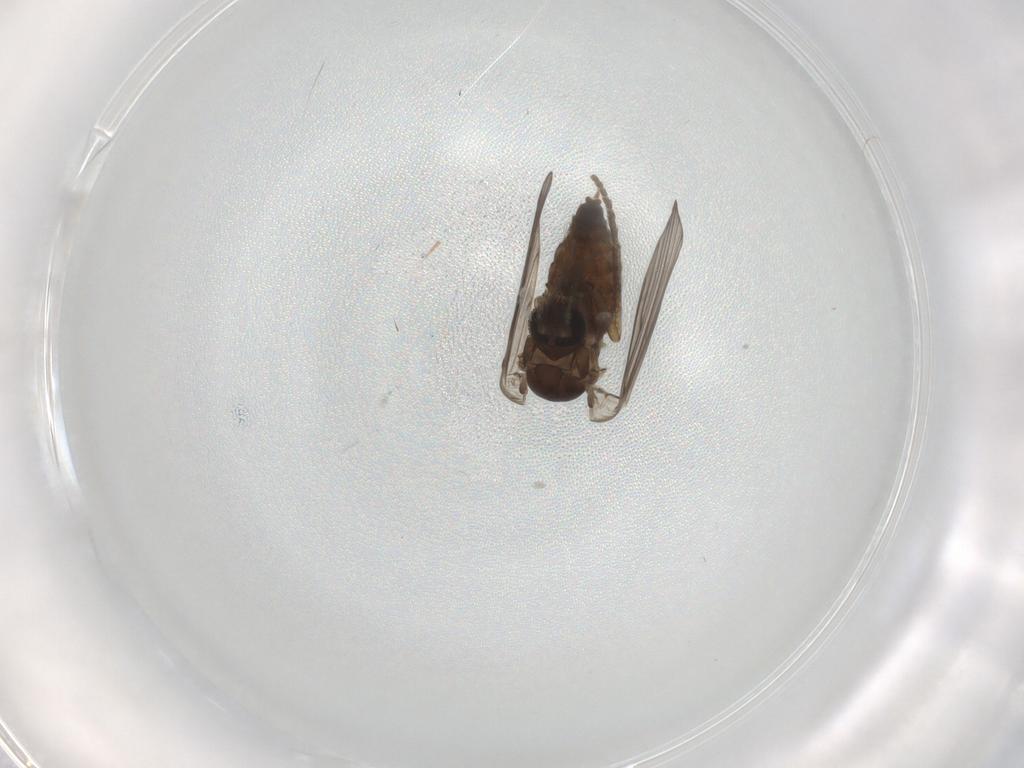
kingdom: Animalia
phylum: Arthropoda
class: Insecta
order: Diptera
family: Psychodidae
